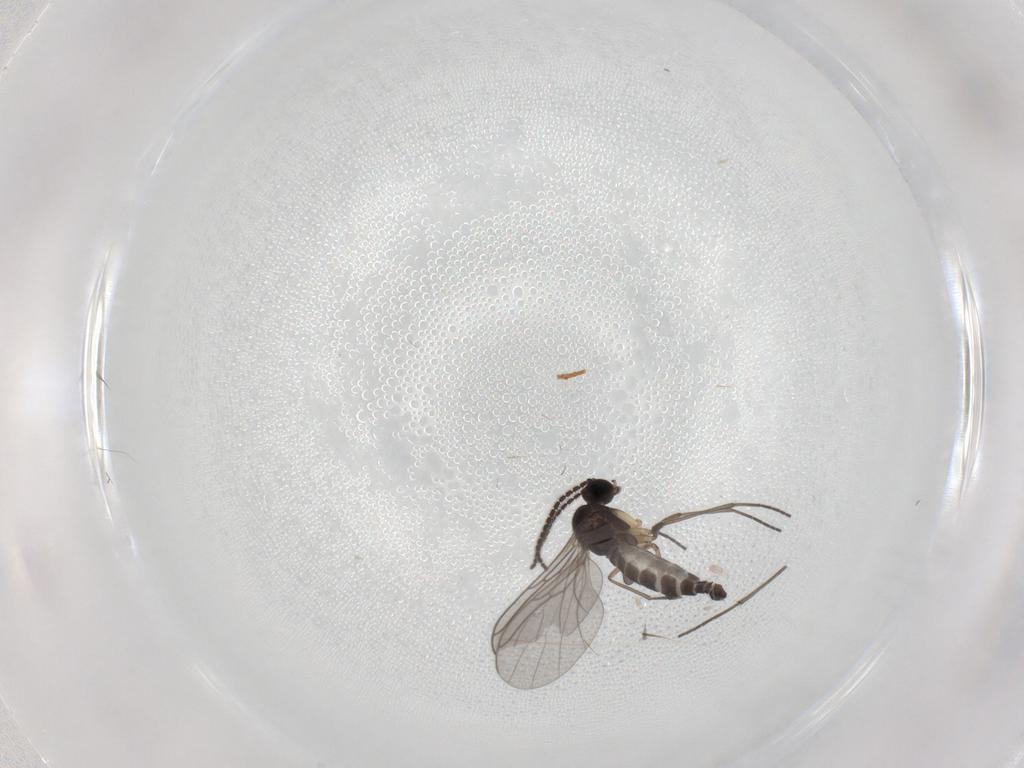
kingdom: Animalia
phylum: Arthropoda
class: Insecta
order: Diptera
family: Sciaridae
